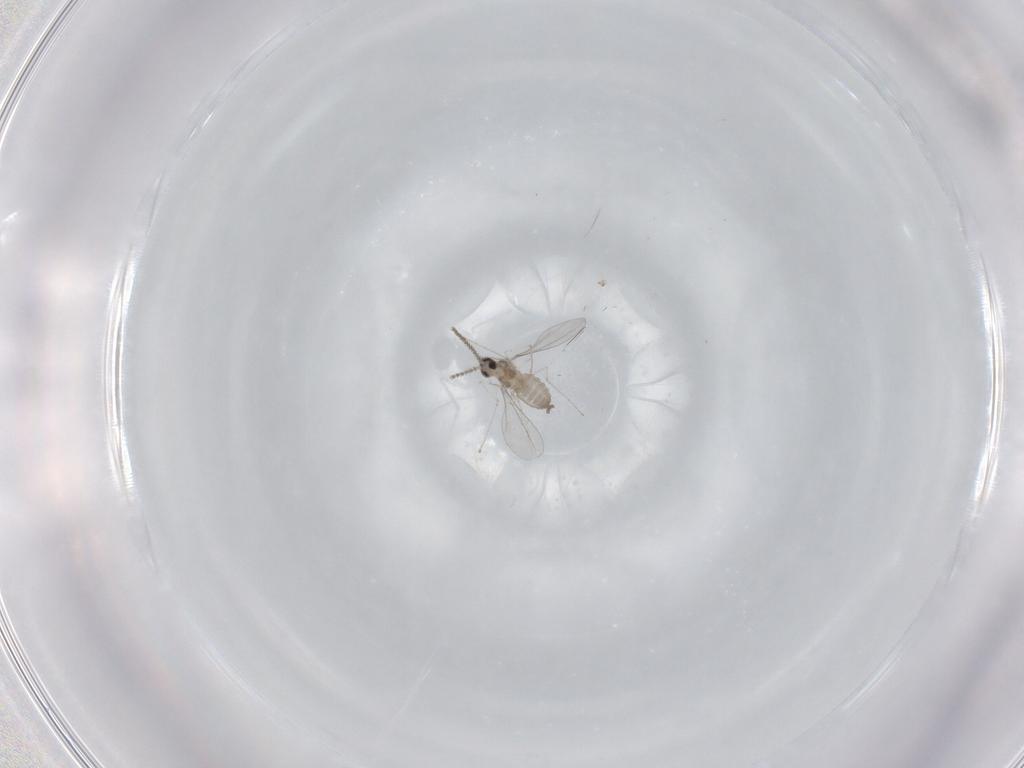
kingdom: Animalia
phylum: Arthropoda
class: Insecta
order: Diptera
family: Cecidomyiidae
